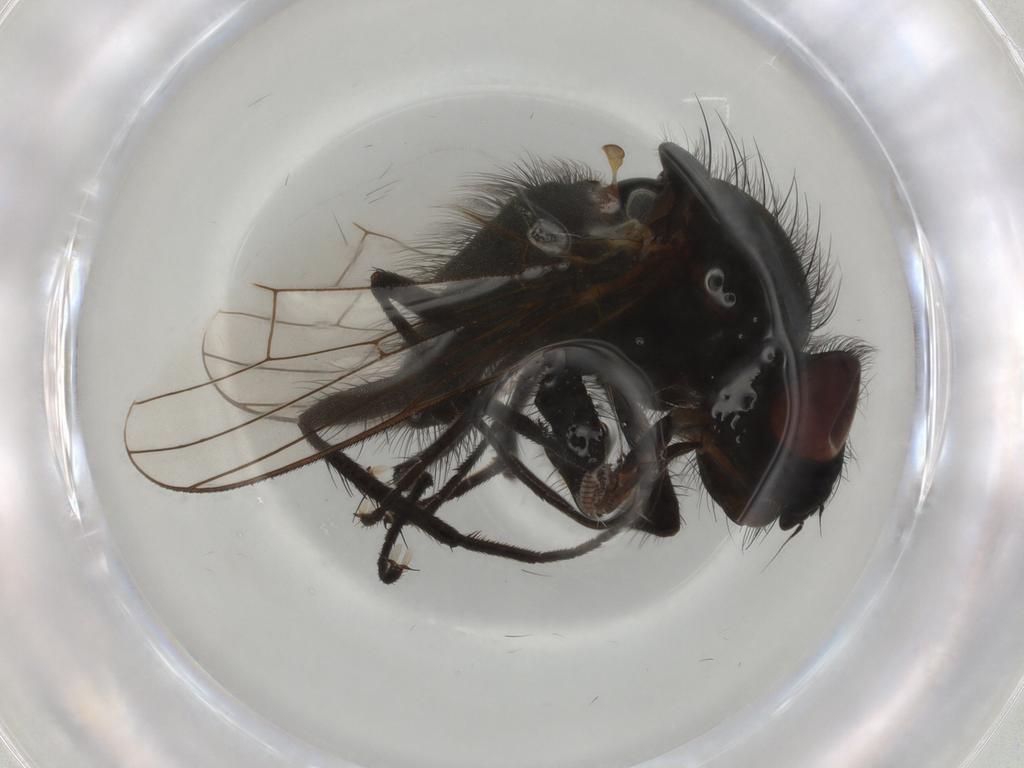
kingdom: Animalia
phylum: Arthropoda
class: Insecta
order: Diptera
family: Anthomyiidae
